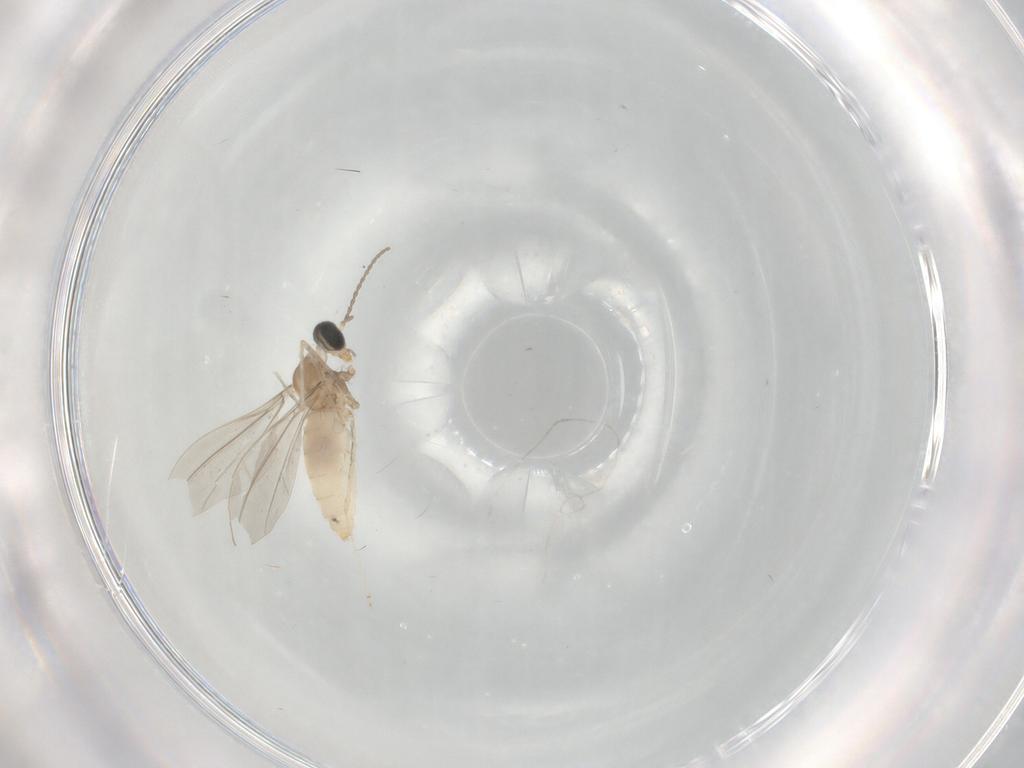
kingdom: Animalia
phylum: Arthropoda
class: Insecta
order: Diptera
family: Cecidomyiidae
